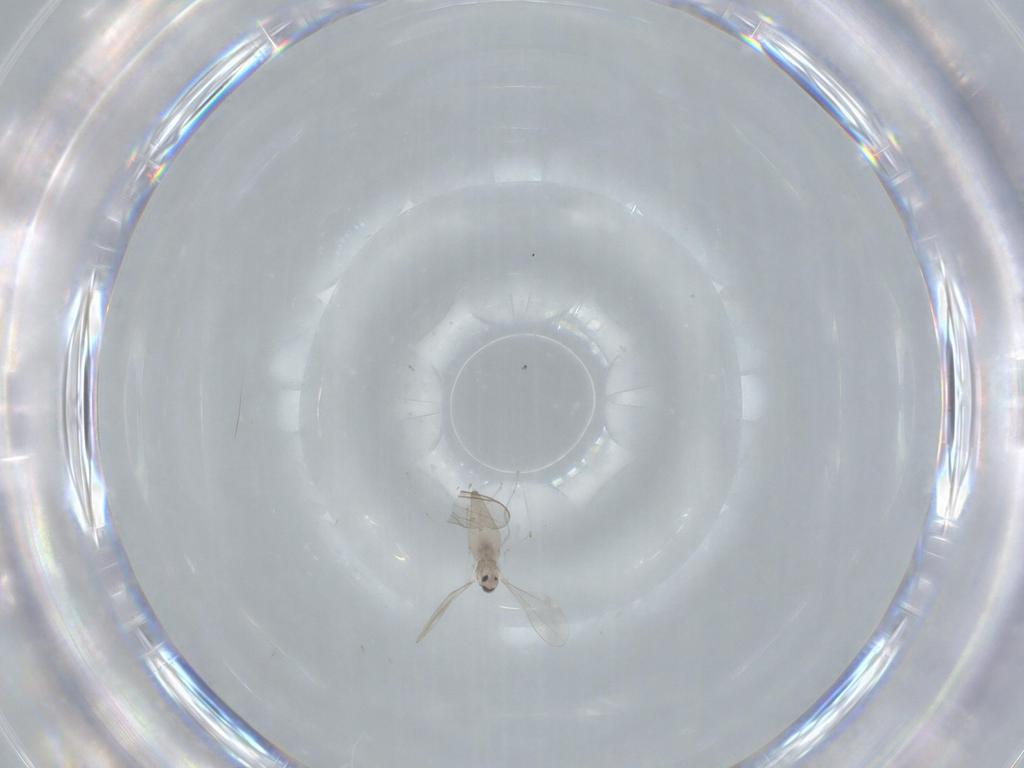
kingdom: Animalia
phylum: Arthropoda
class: Insecta
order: Diptera
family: Cecidomyiidae
